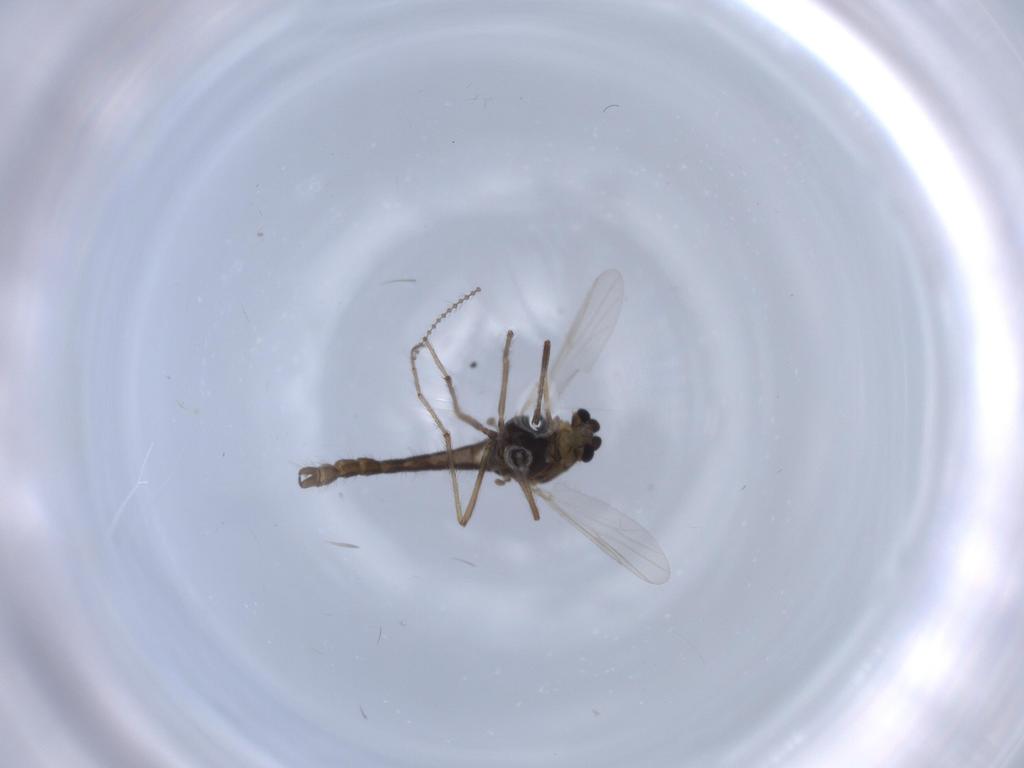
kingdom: Animalia
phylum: Arthropoda
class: Insecta
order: Diptera
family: Chironomidae
